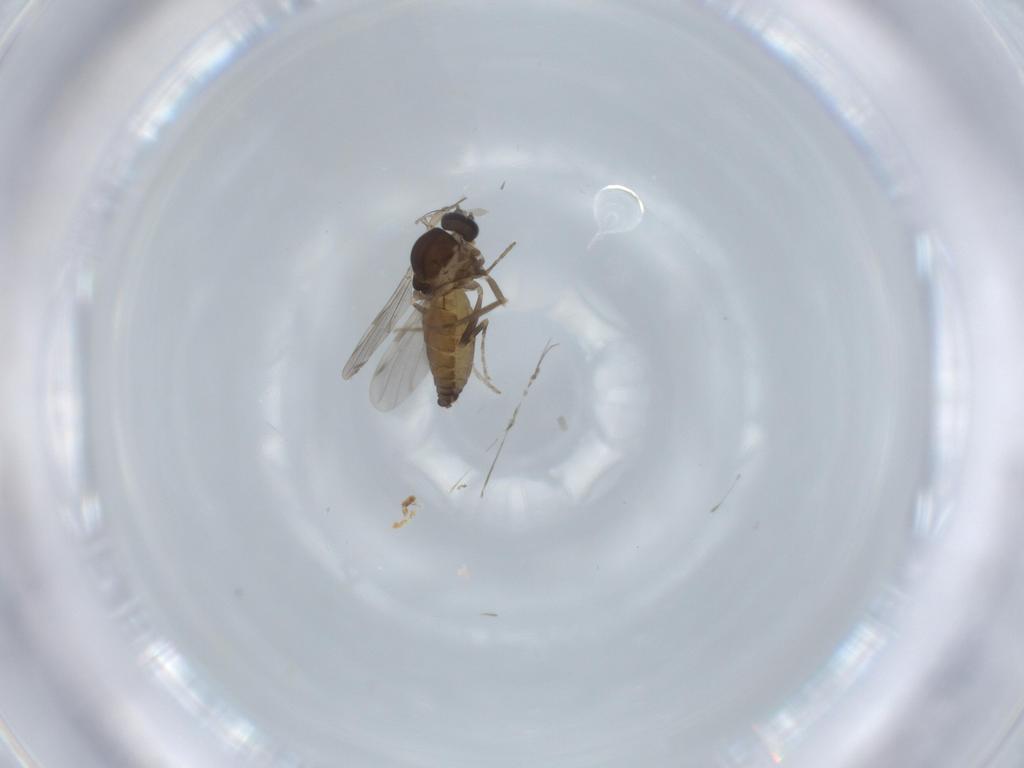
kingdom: Animalia
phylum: Arthropoda
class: Insecta
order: Diptera
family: Ceratopogonidae
